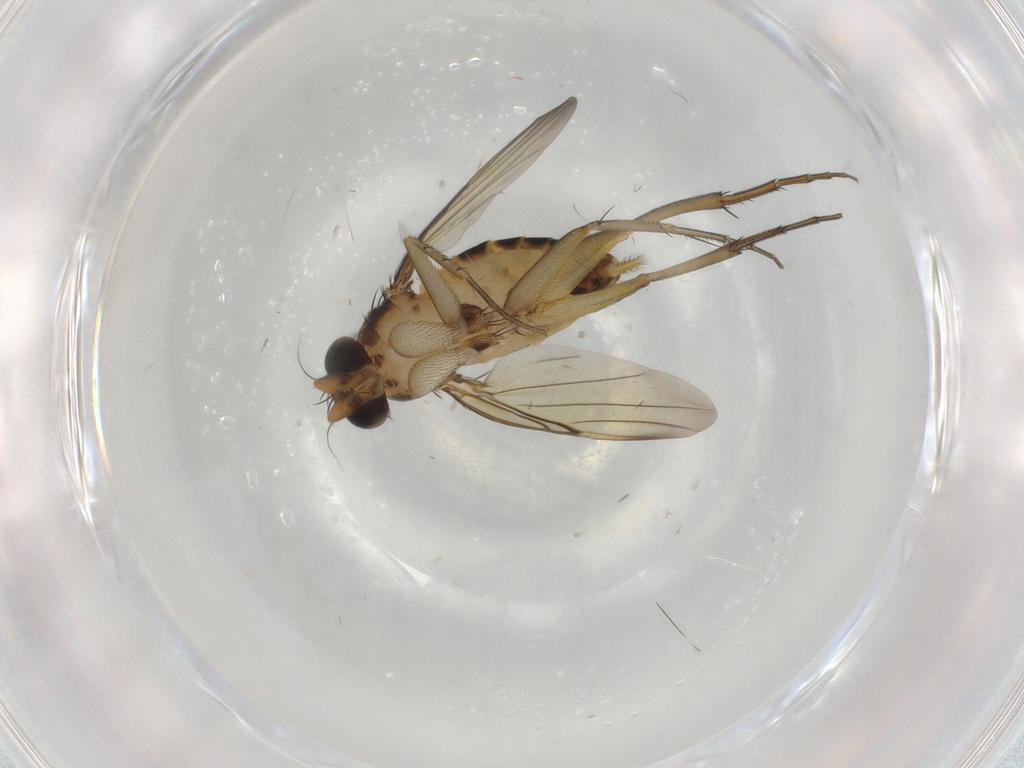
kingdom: Animalia
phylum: Arthropoda
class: Insecta
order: Diptera
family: Phoridae
